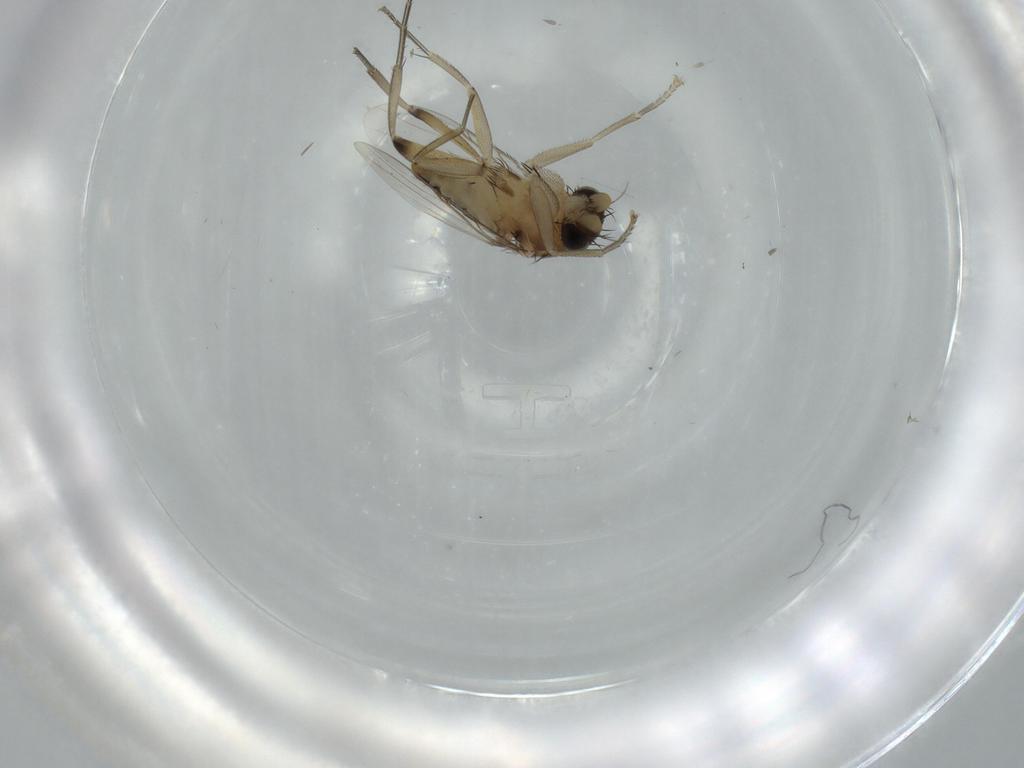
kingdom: Animalia
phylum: Arthropoda
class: Insecta
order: Diptera
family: Phoridae
